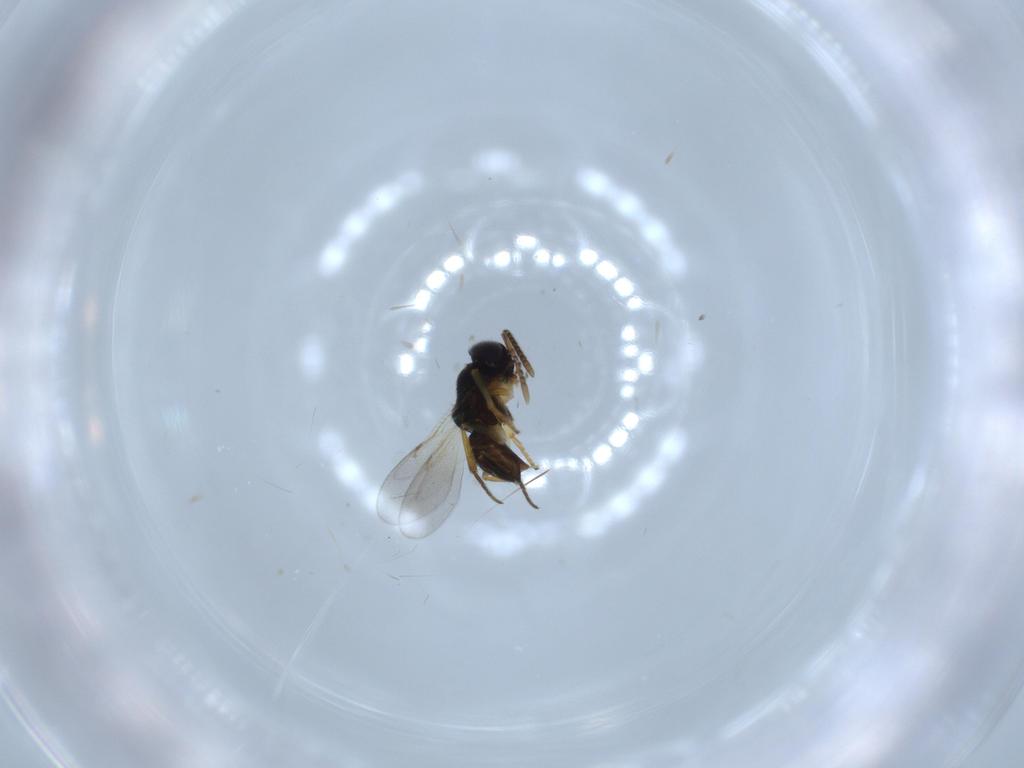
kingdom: Animalia
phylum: Arthropoda
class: Insecta
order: Hymenoptera
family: Encyrtidae
